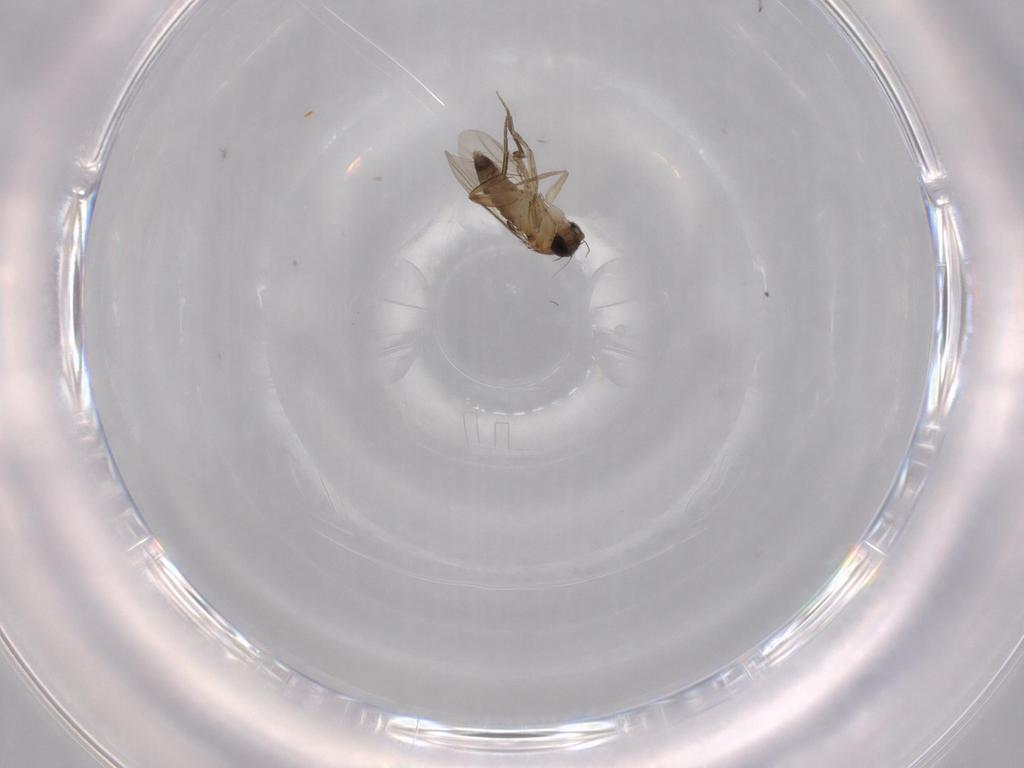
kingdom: Animalia
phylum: Arthropoda
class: Insecta
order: Diptera
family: Phoridae
